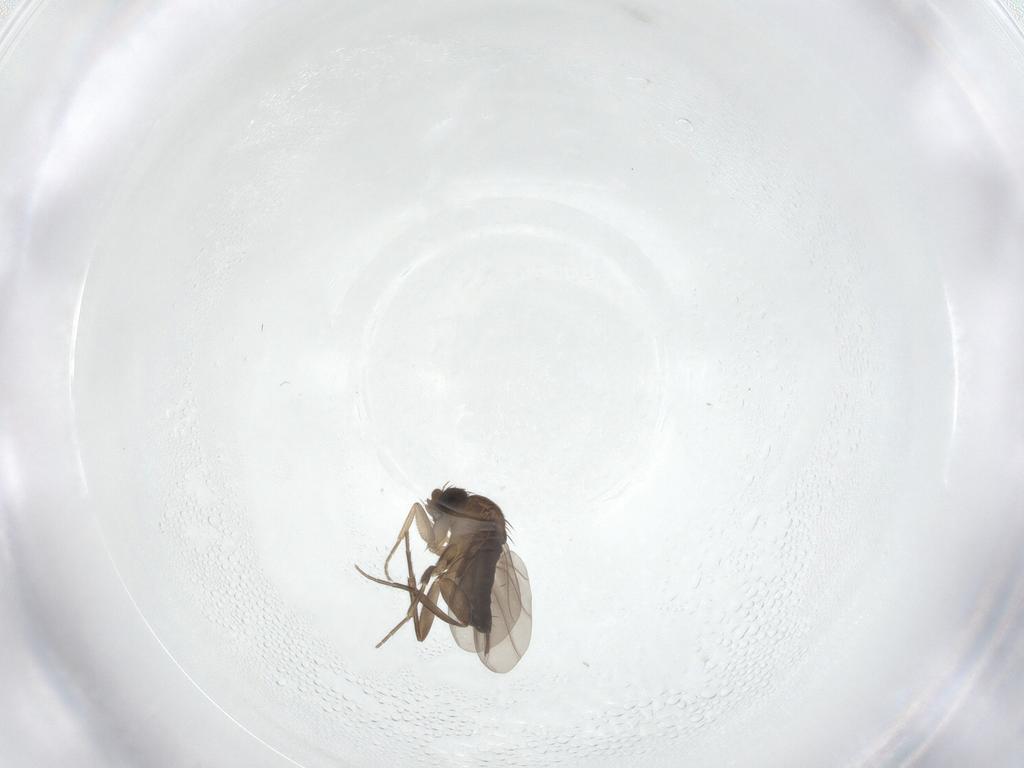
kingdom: Animalia
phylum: Arthropoda
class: Insecta
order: Diptera
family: Phoridae
